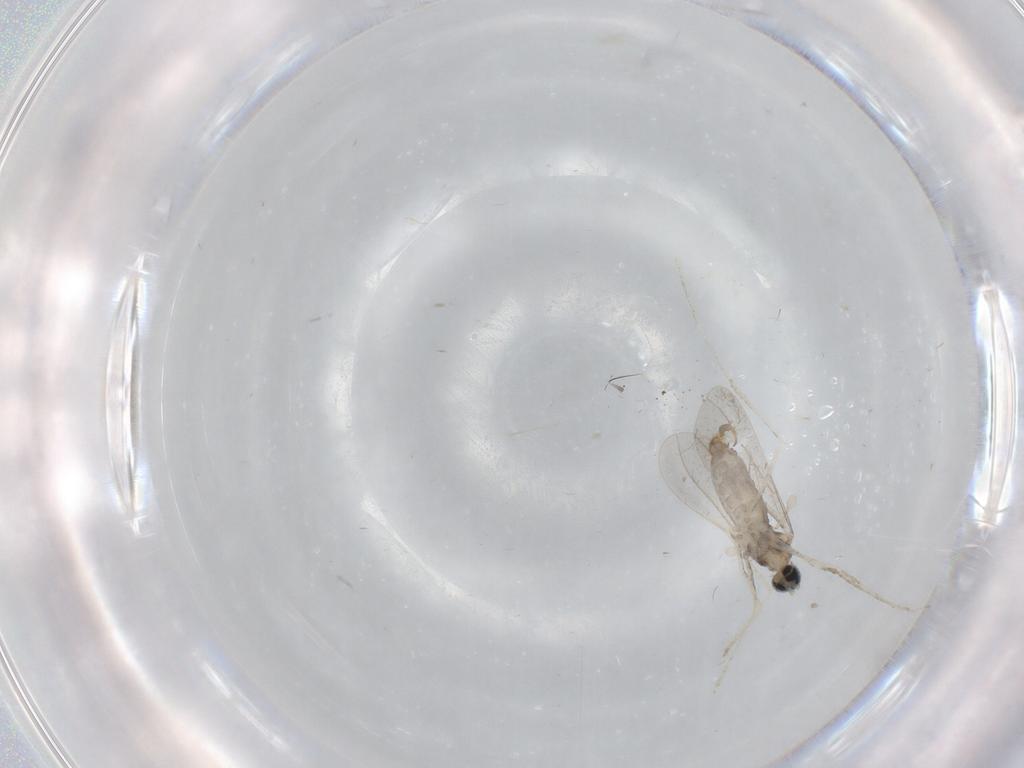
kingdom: Animalia
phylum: Arthropoda
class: Insecta
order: Diptera
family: Cecidomyiidae
